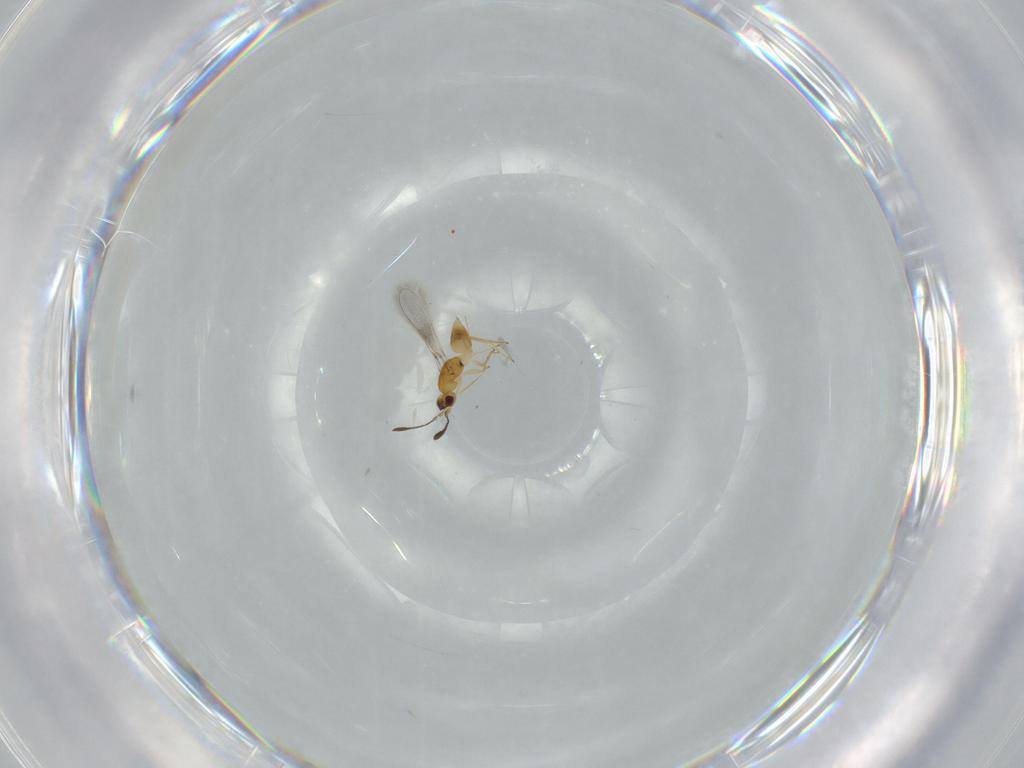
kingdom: Animalia
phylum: Arthropoda
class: Insecta
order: Hymenoptera
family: Mymaridae
